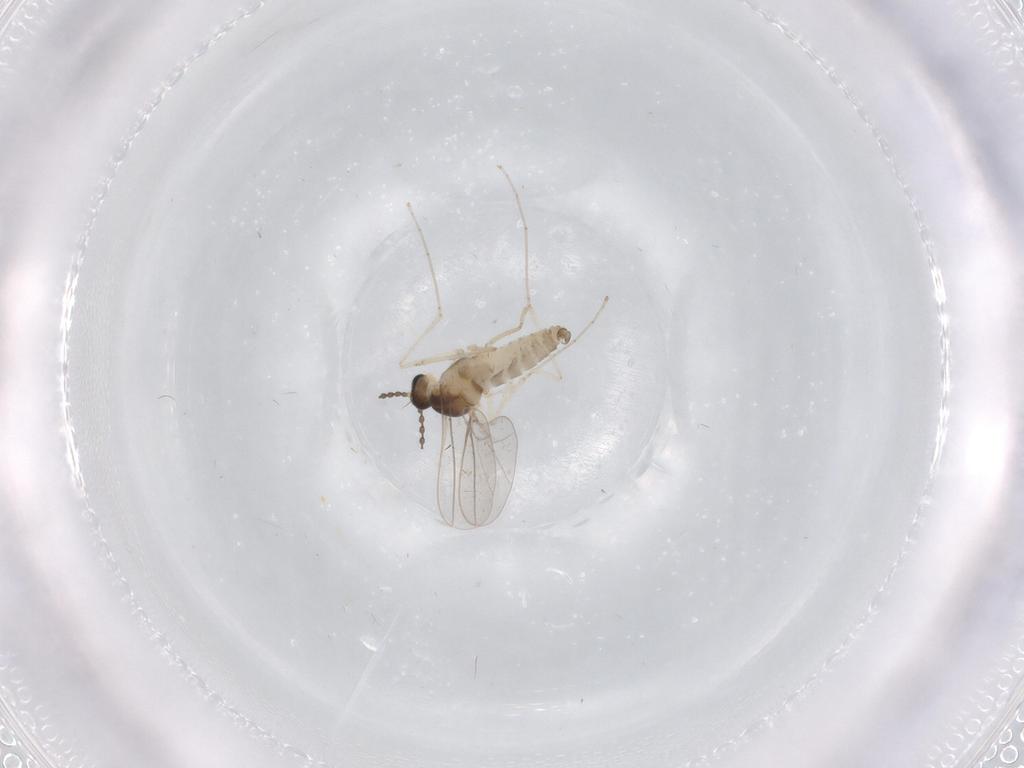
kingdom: Animalia
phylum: Arthropoda
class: Insecta
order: Diptera
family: Cecidomyiidae
